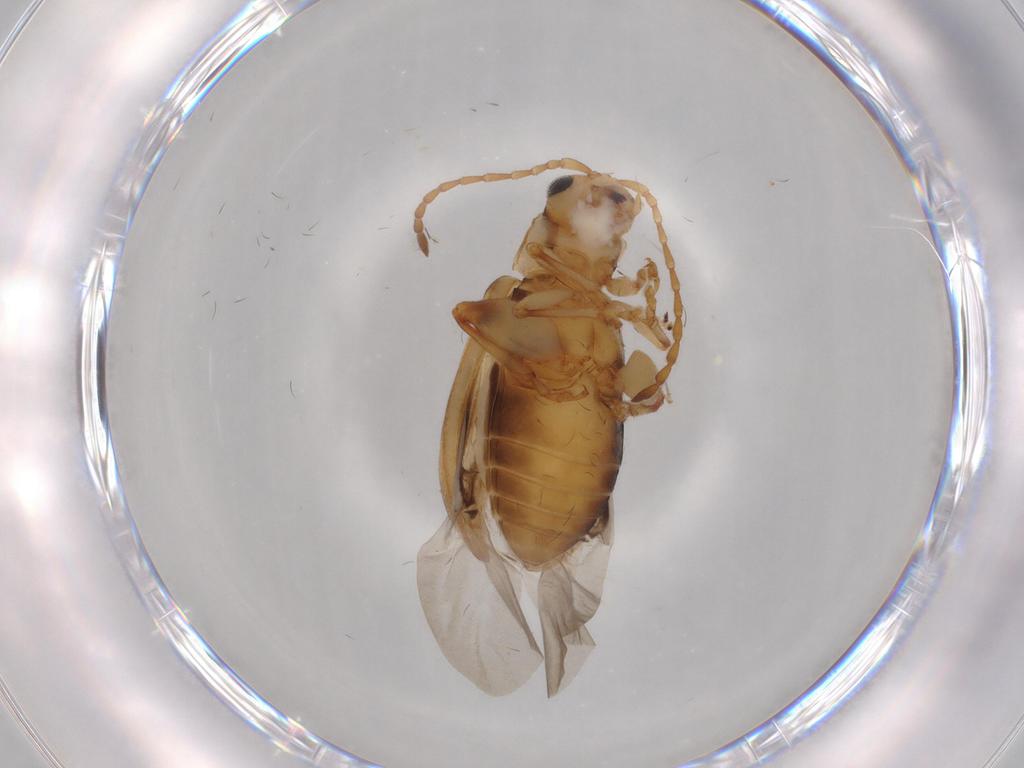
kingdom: Animalia
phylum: Arthropoda
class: Insecta
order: Coleoptera
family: Chrysomelidae
